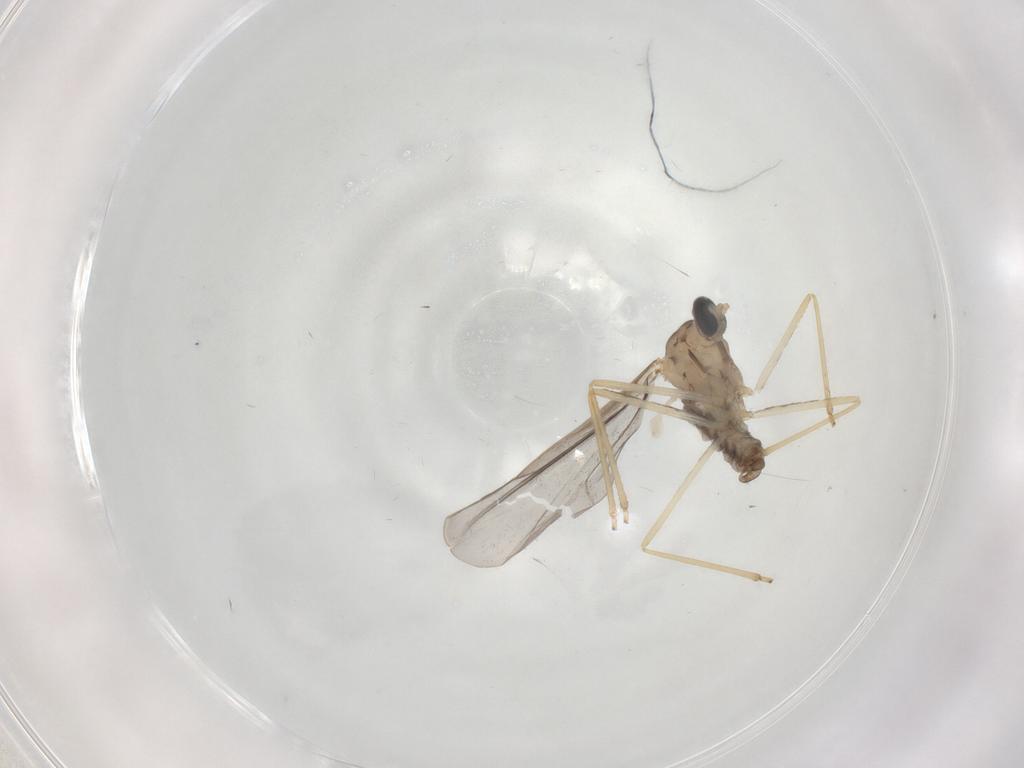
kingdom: Animalia
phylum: Arthropoda
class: Insecta
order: Diptera
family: Cecidomyiidae
